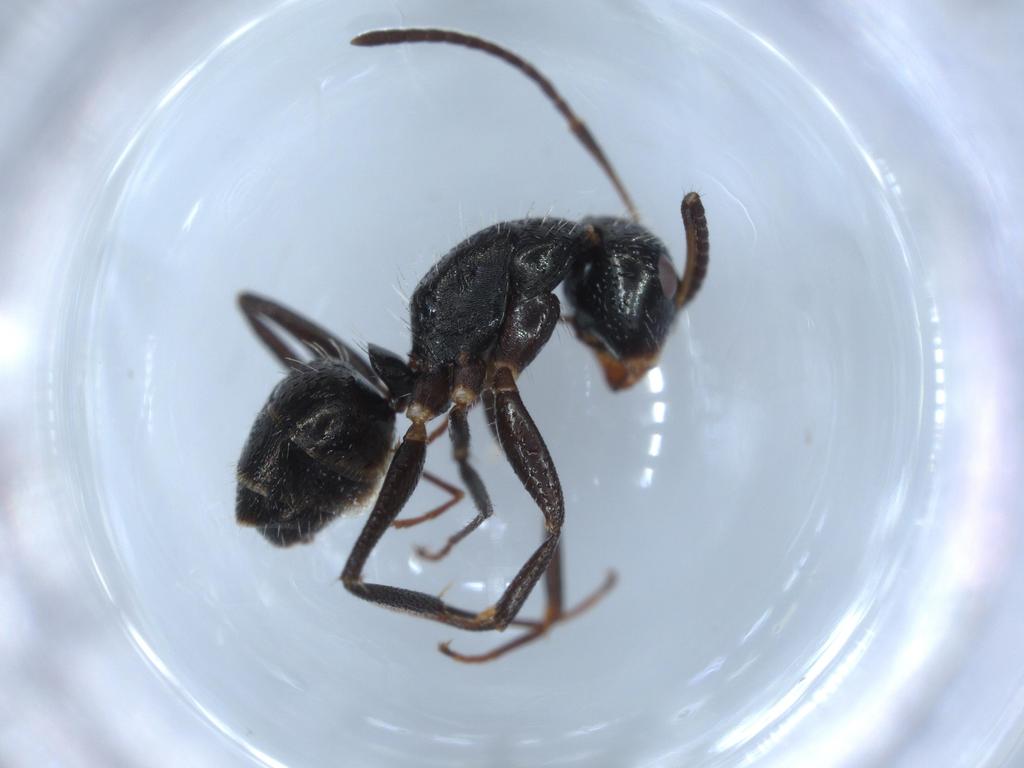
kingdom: Animalia
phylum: Arthropoda
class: Insecta
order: Hymenoptera
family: Formicidae
